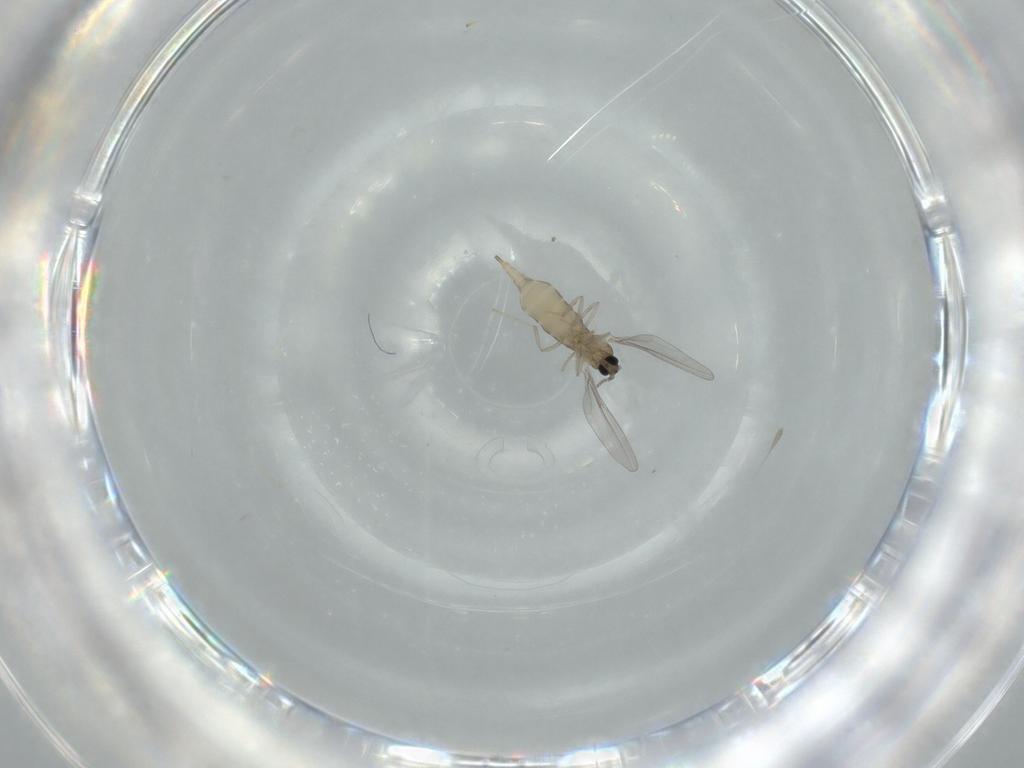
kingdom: Animalia
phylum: Arthropoda
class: Insecta
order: Diptera
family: Cecidomyiidae
